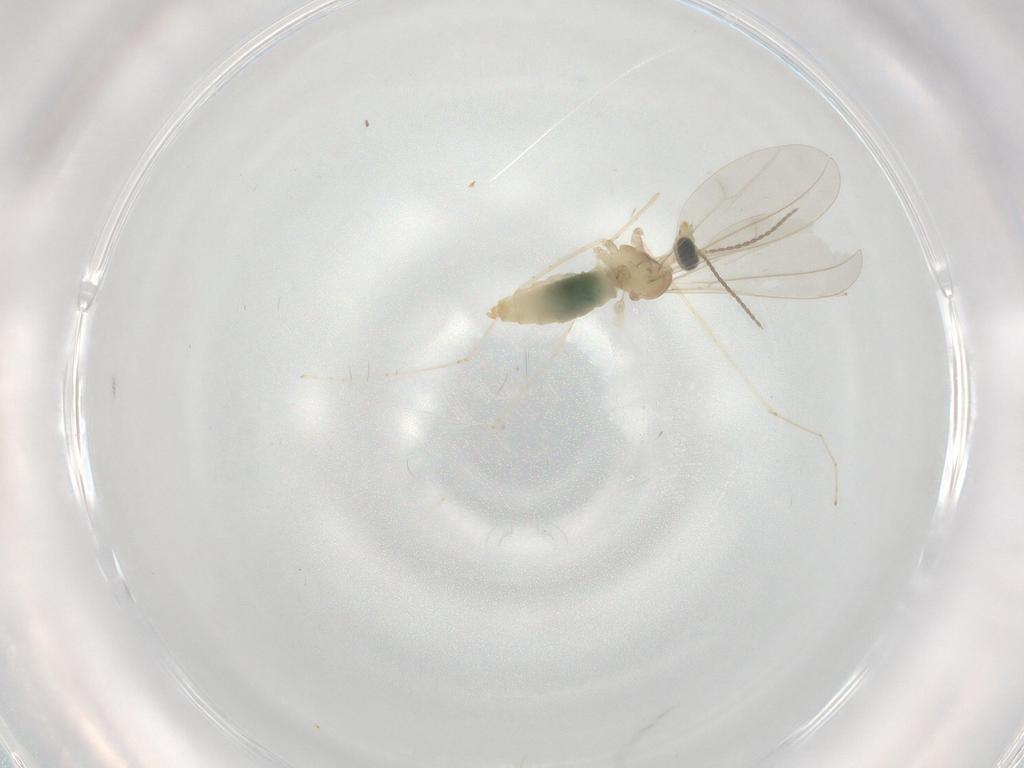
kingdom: Animalia
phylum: Arthropoda
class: Insecta
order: Diptera
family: Cecidomyiidae
